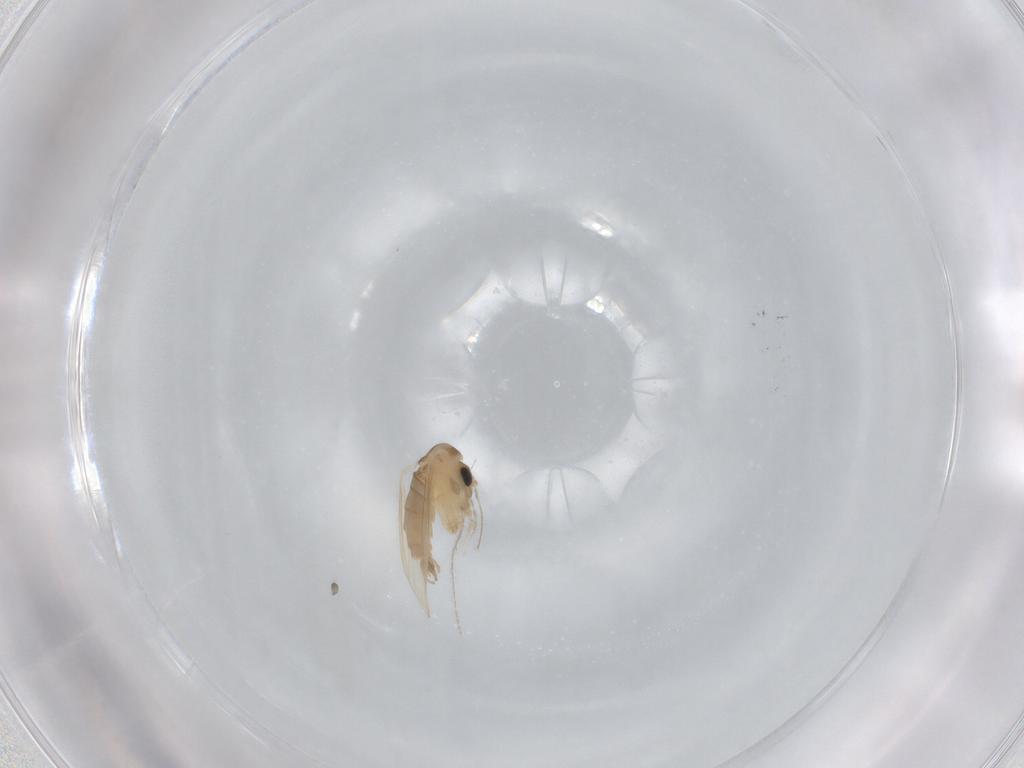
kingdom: Animalia
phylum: Arthropoda
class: Insecta
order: Diptera
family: Psychodidae
